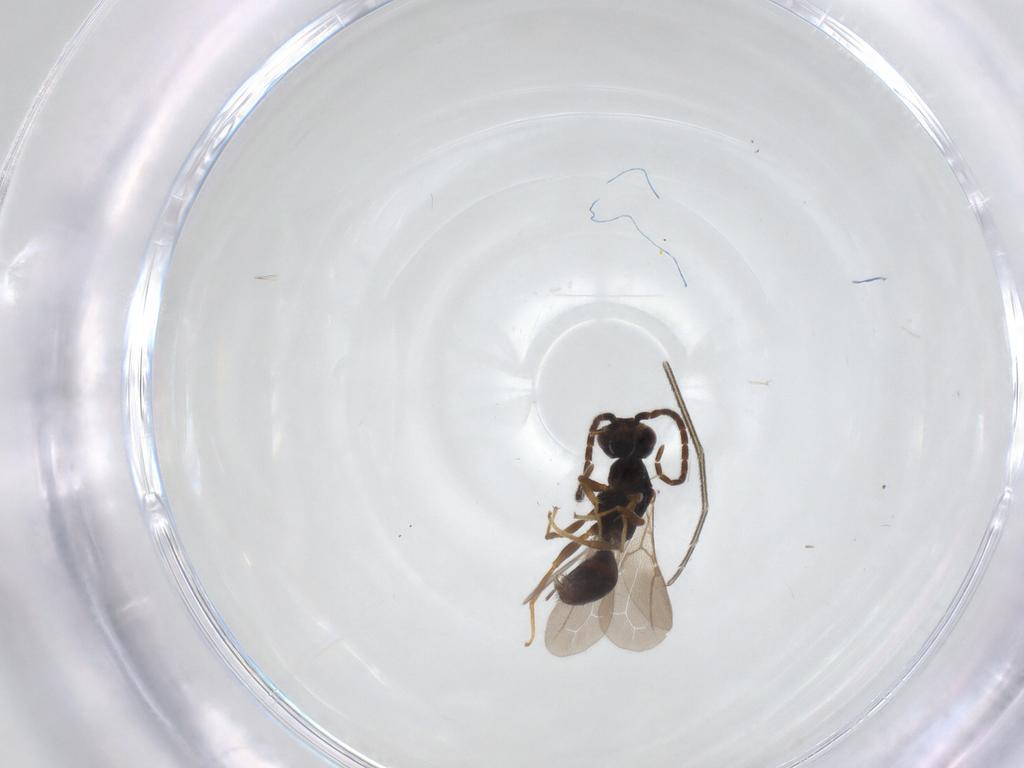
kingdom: Animalia
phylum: Arthropoda
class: Insecta
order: Hymenoptera
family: Bethylidae
